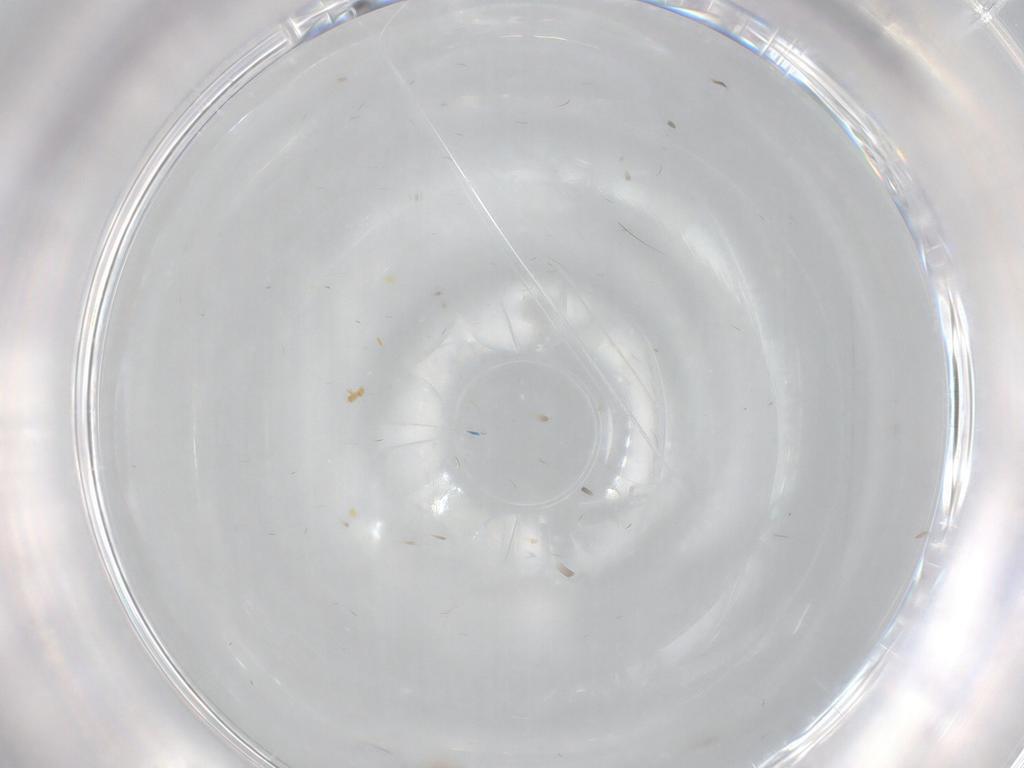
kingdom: Animalia
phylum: Arthropoda
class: Insecta
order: Diptera
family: Psychodidae
